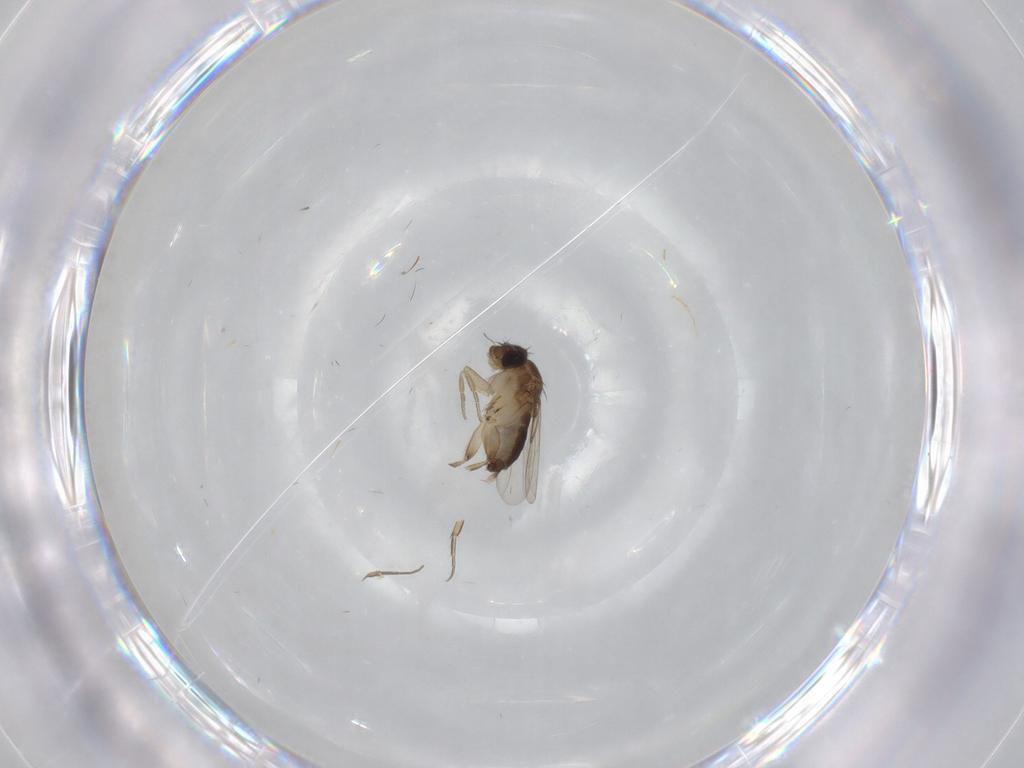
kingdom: Animalia
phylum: Arthropoda
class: Insecta
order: Diptera
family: Phoridae
